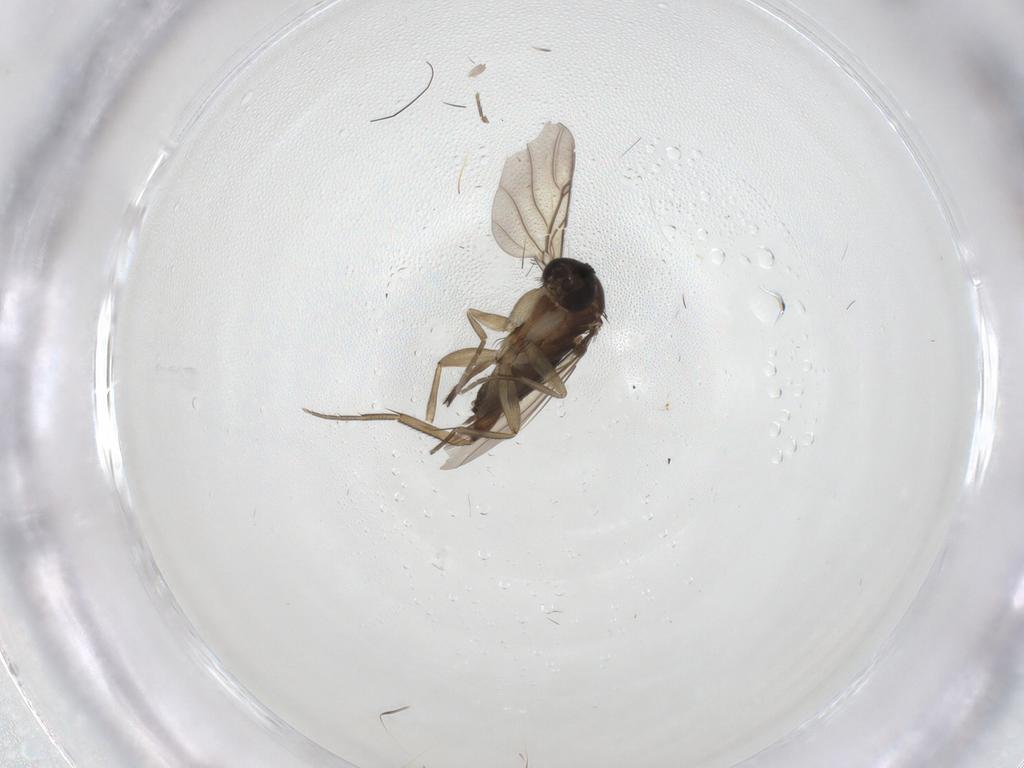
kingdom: Animalia
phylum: Arthropoda
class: Insecta
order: Diptera
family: Phoridae
